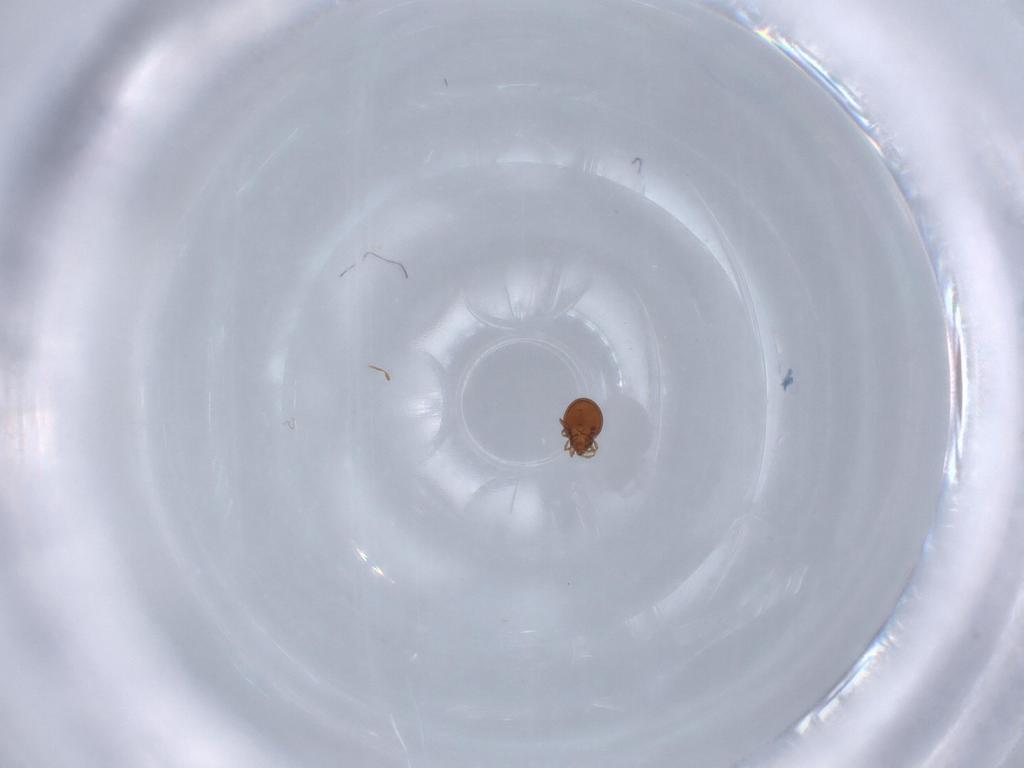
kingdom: Animalia
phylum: Arthropoda
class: Arachnida
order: Sarcoptiformes
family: Oribatulidae
